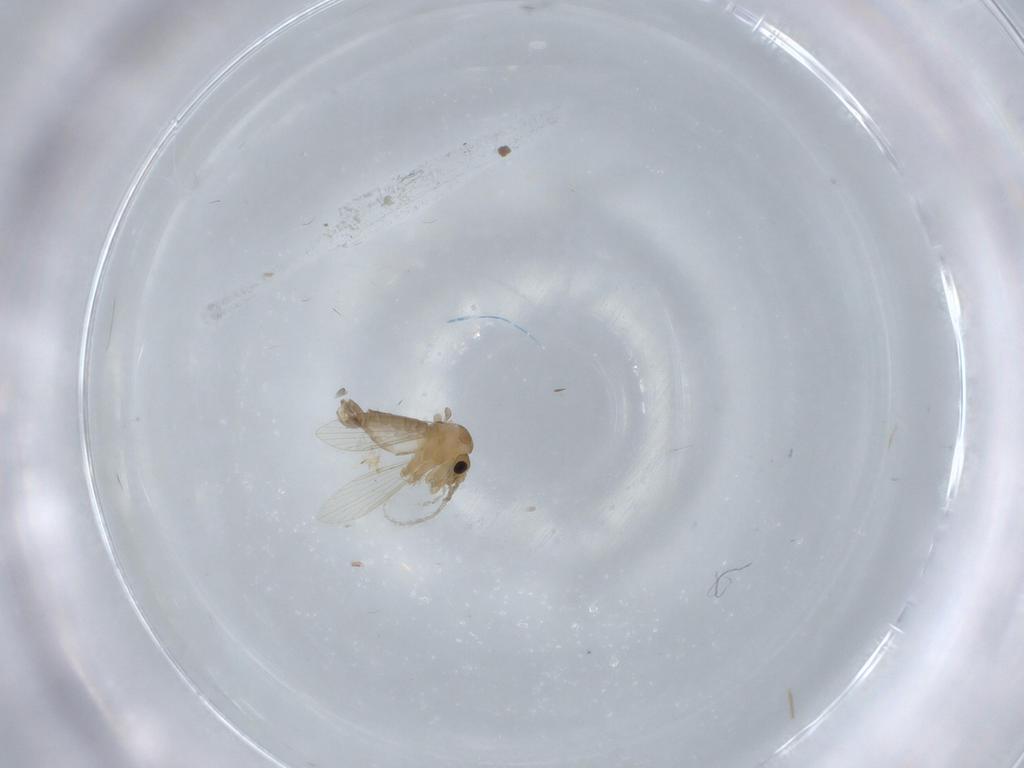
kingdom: Animalia
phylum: Arthropoda
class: Insecta
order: Diptera
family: Psychodidae
